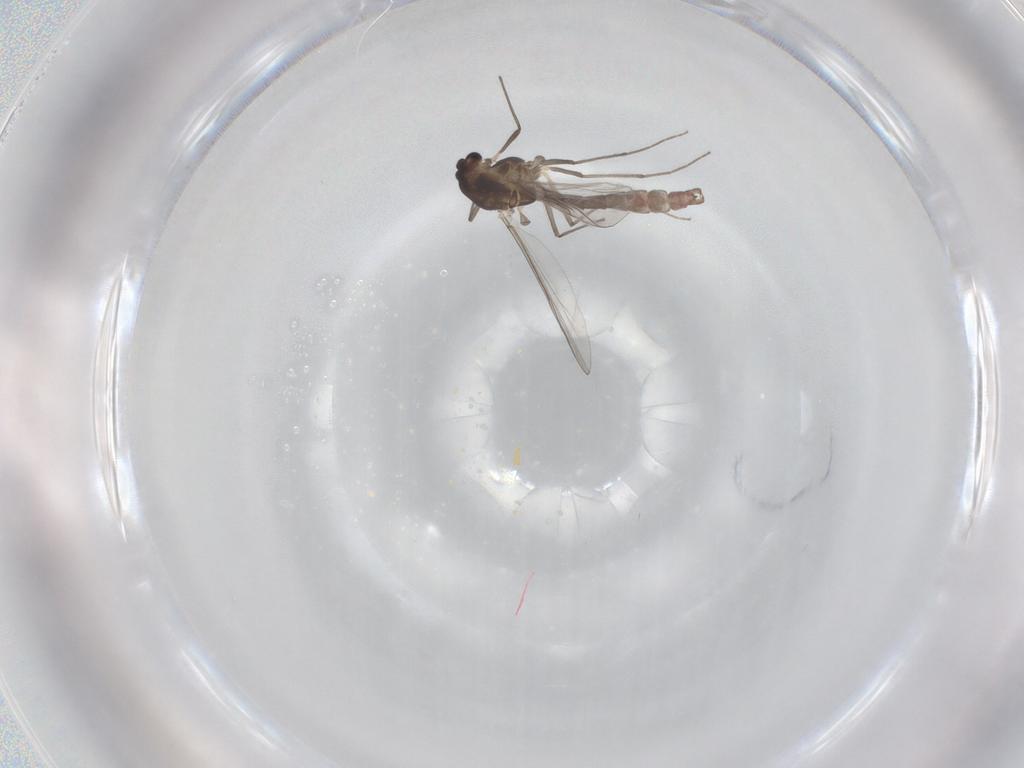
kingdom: Animalia
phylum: Arthropoda
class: Insecta
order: Diptera
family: Chironomidae
